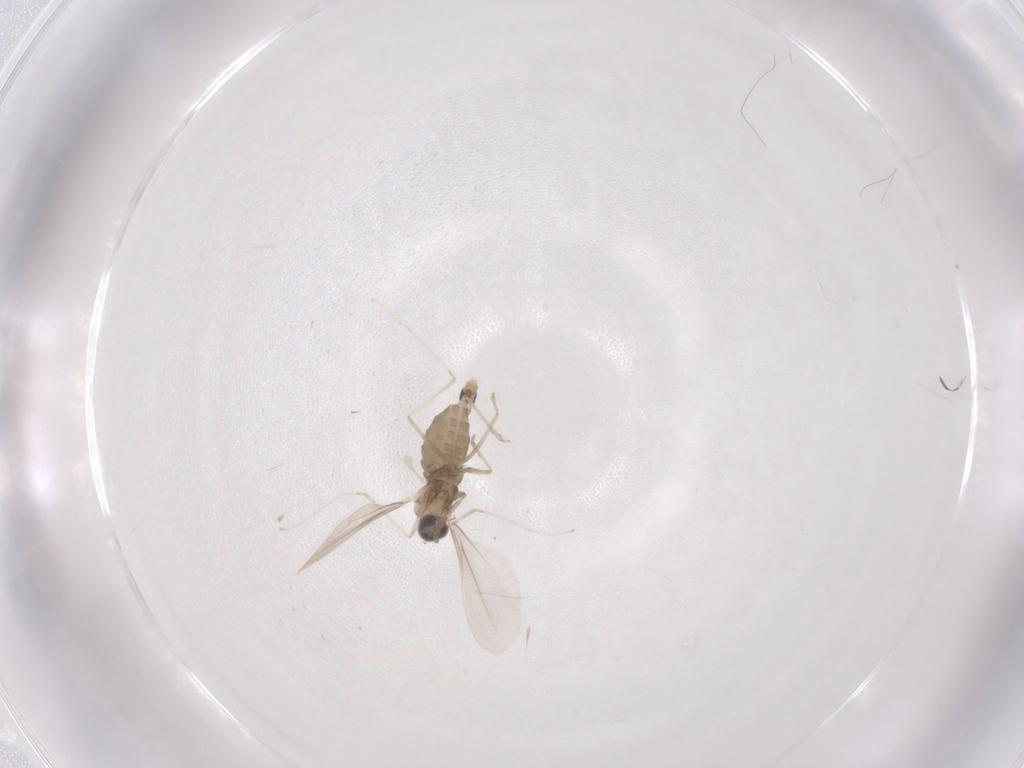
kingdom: Animalia
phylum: Arthropoda
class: Insecta
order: Diptera
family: Cecidomyiidae
